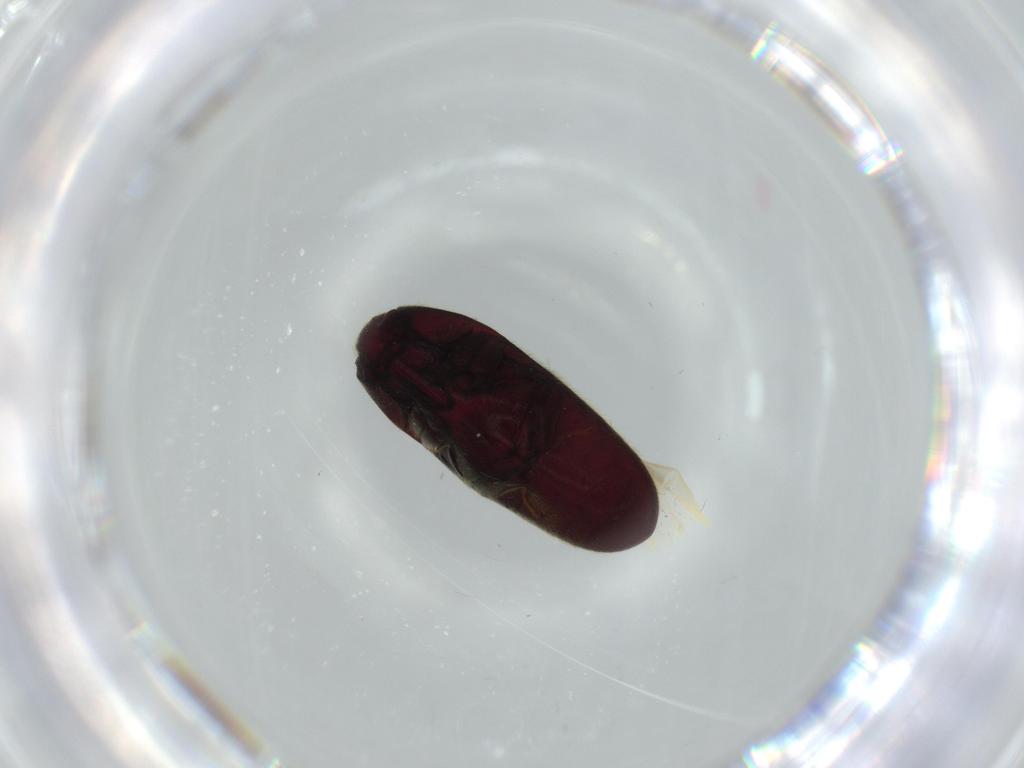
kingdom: Animalia
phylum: Arthropoda
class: Insecta
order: Coleoptera
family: Throscidae
